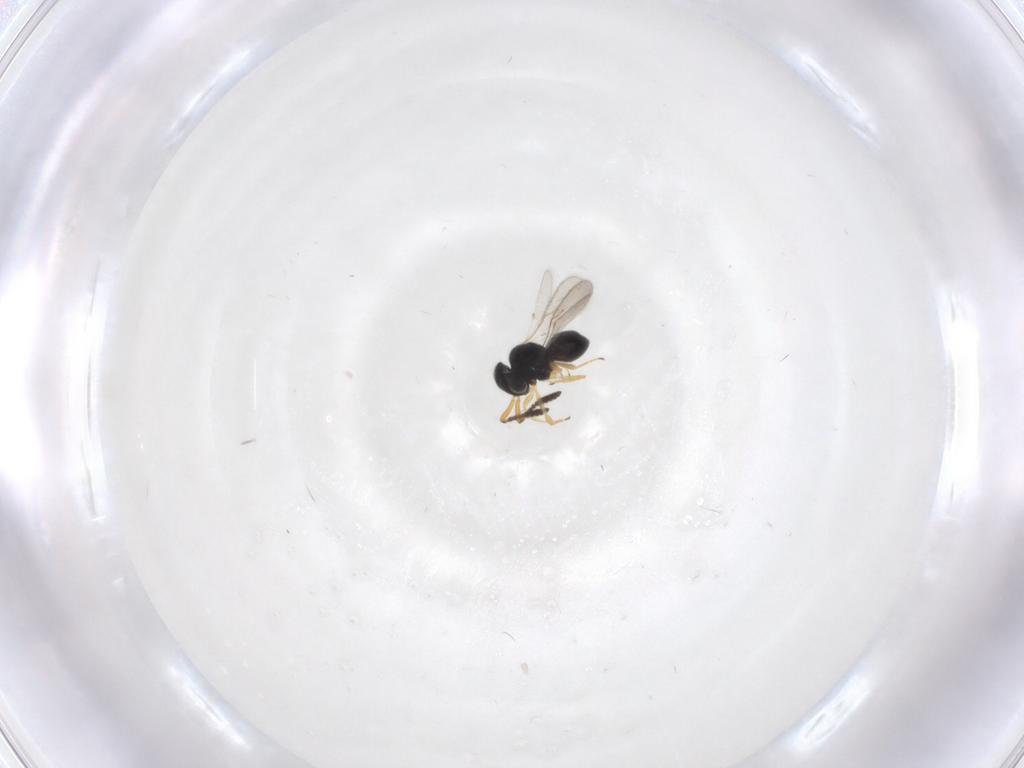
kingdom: Animalia
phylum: Arthropoda
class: Insecta
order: Hymenoptera
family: Scelionidae
